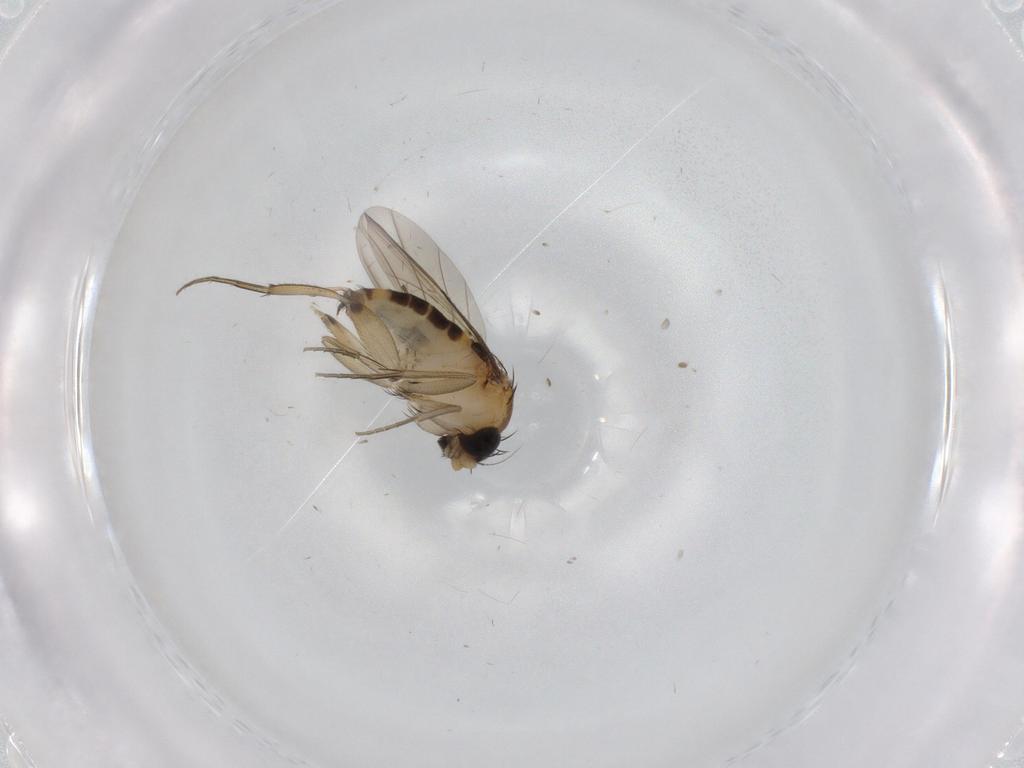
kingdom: Animalia
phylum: Arthropoda
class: Insecta
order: Diptera
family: Phoridae
